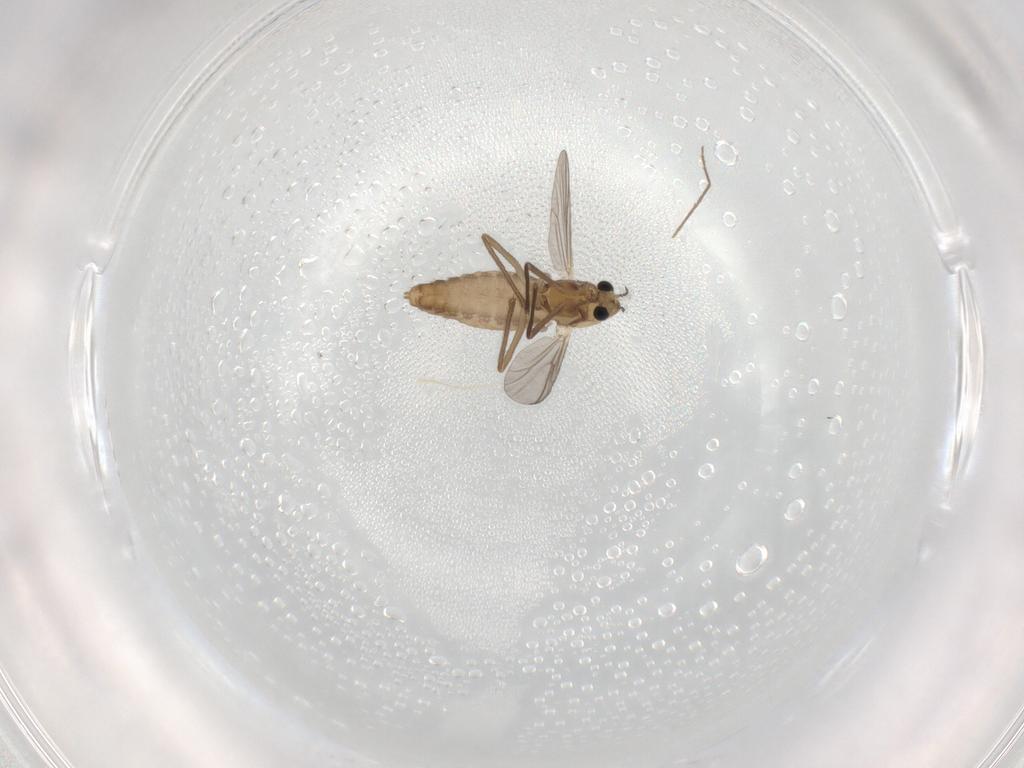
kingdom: Animalia
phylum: Arthropoda
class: Insecta
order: Diptera
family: Chironomidae
